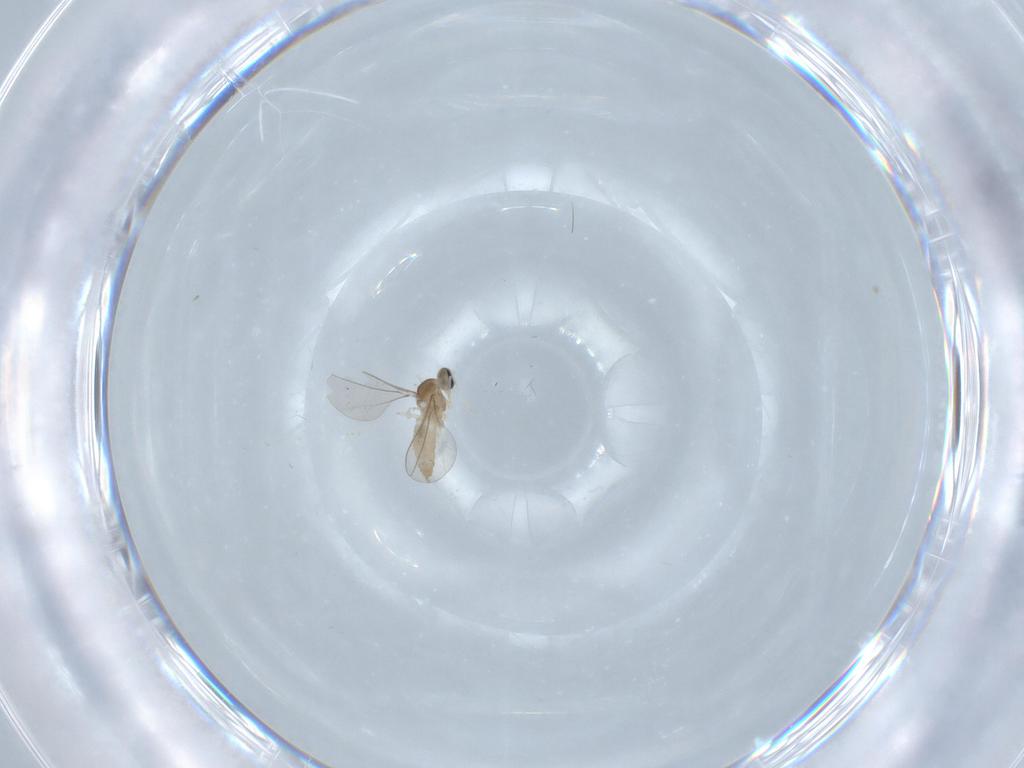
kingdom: Animalia
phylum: Arthropoda
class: Insecta
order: Diptera
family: Cecidomyiidae
